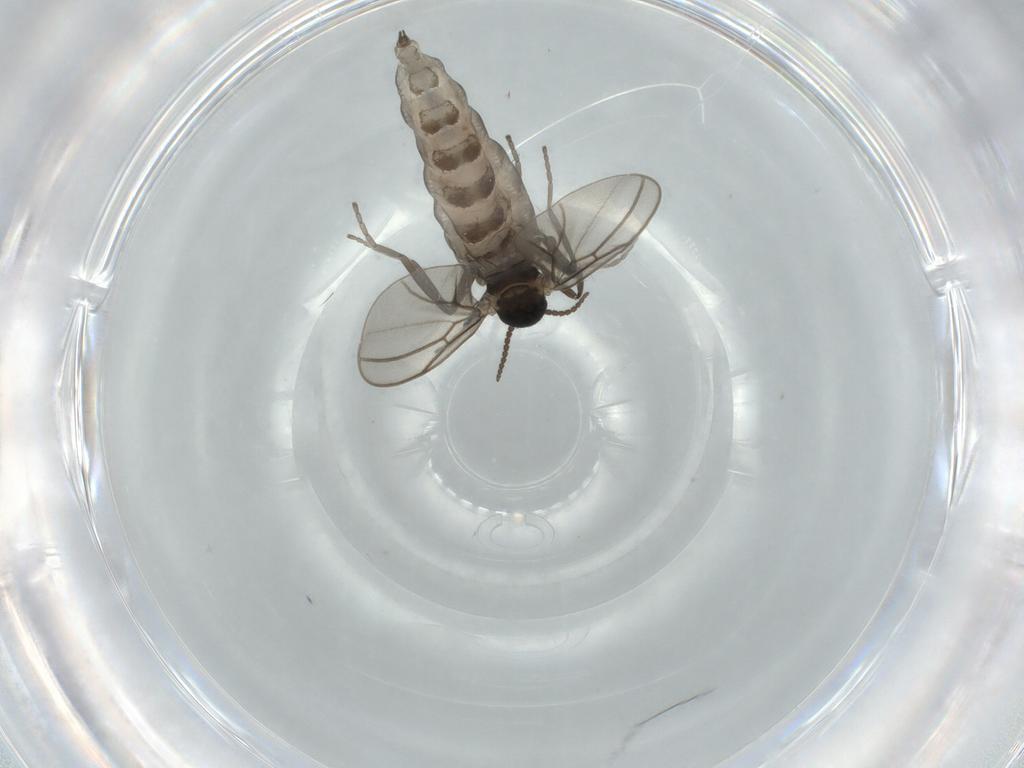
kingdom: Animalia
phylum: Arthropoda
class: Insecta
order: Diptera
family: Cecidomyiidae
